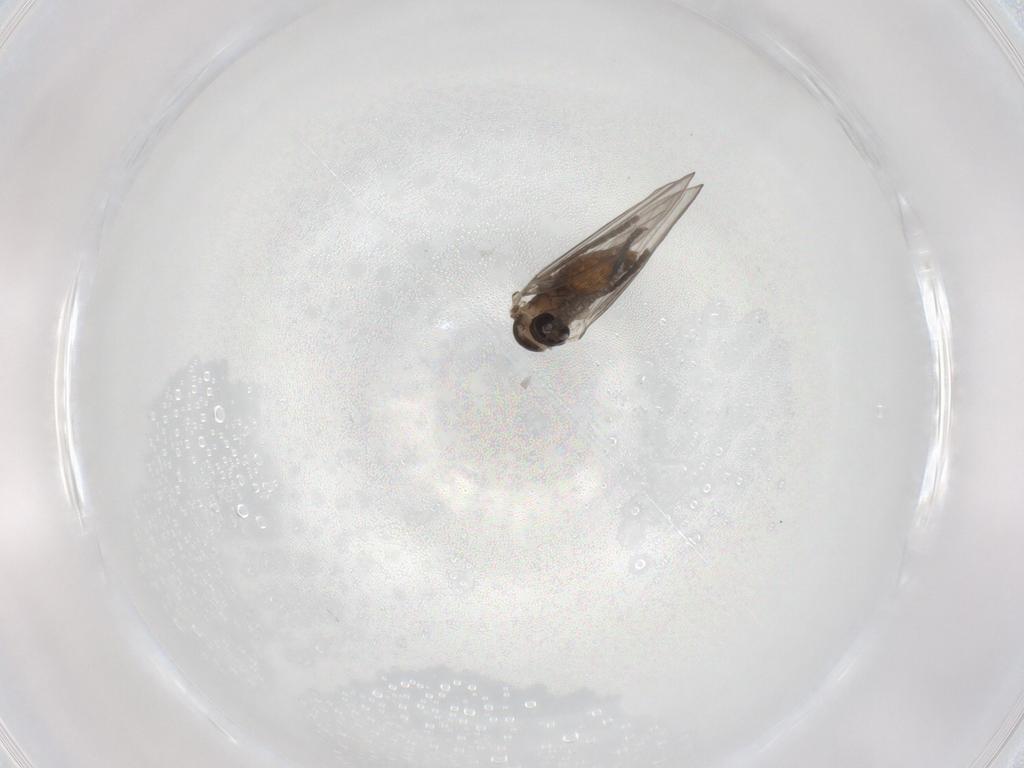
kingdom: Animalia
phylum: Arthropoda
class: Insecta
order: Diptera
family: Psychodidae
